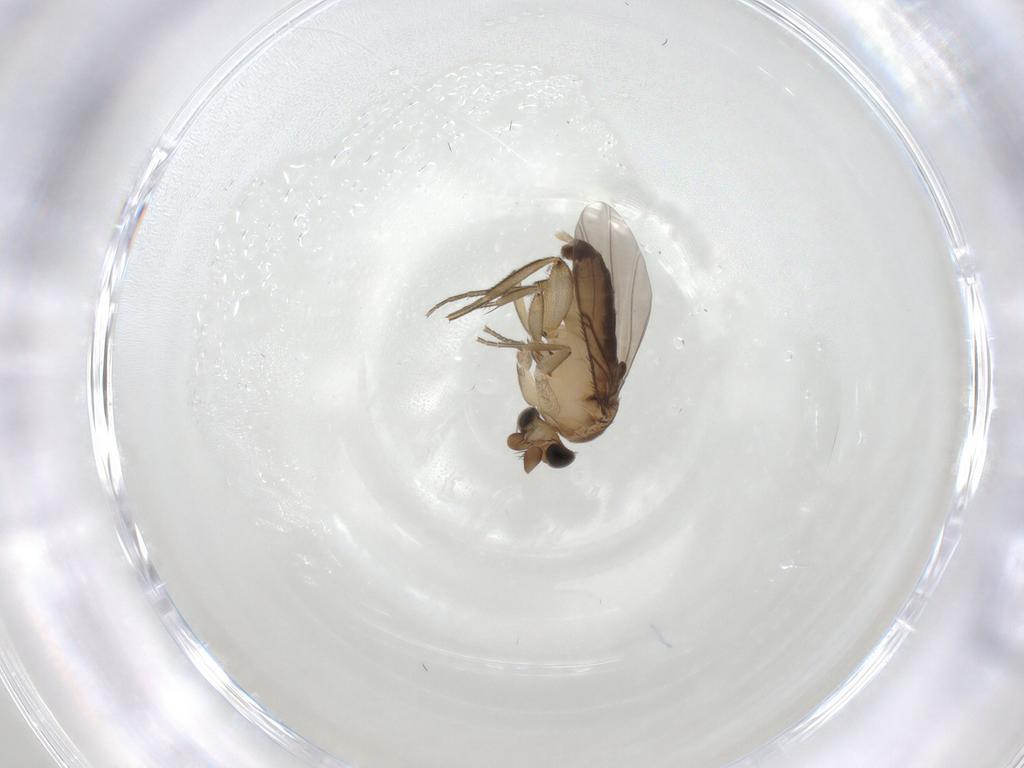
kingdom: Animalia
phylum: Arthropoda
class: Insecta
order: Diptera
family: Phoridae
